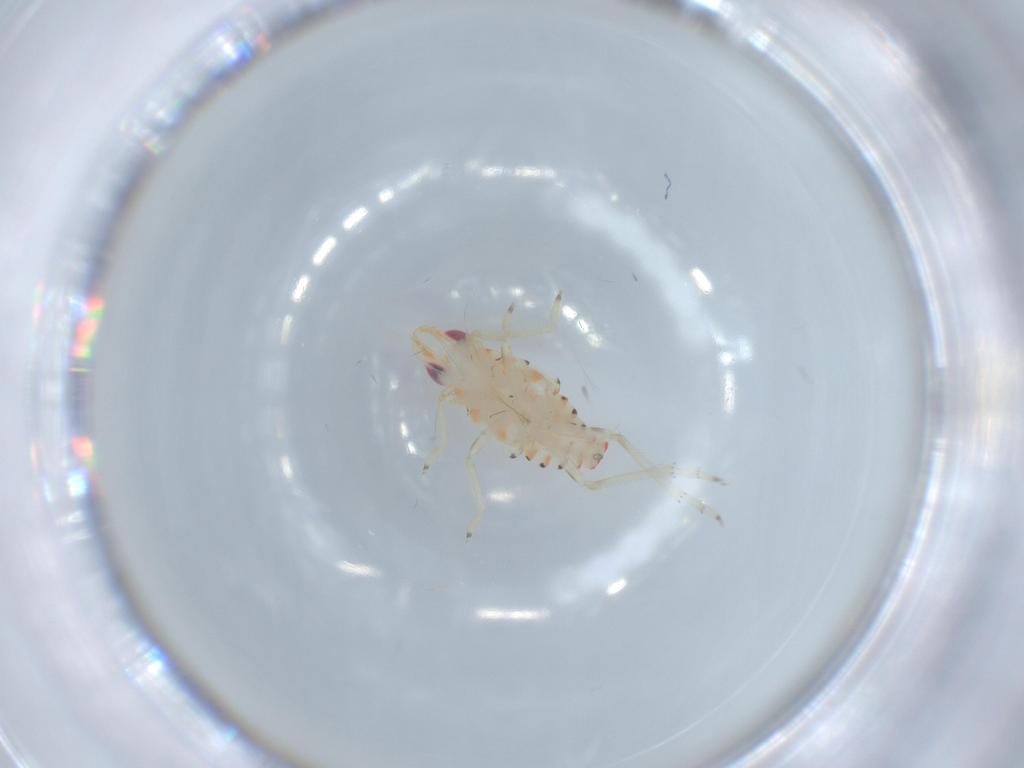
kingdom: Animalia
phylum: Arthropoda
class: Insecta
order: Hemiptera
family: Tropiduchidae
